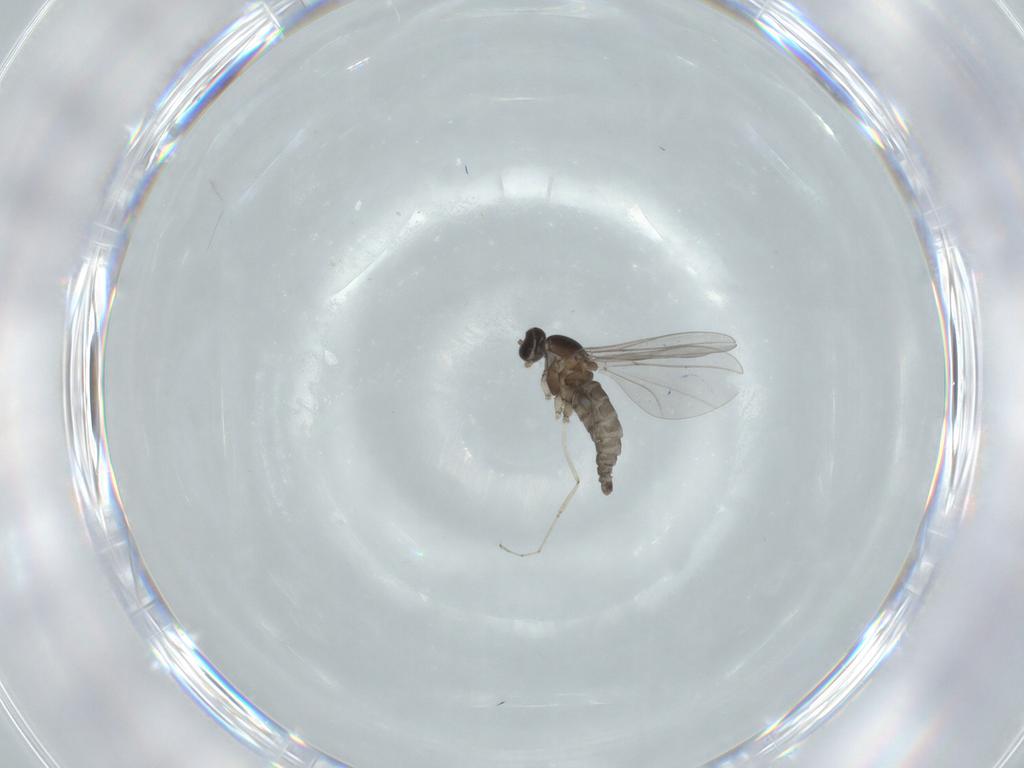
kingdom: Animalia
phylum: Arthropoda
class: Insecta
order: Diptera
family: Cecidomyiidae
